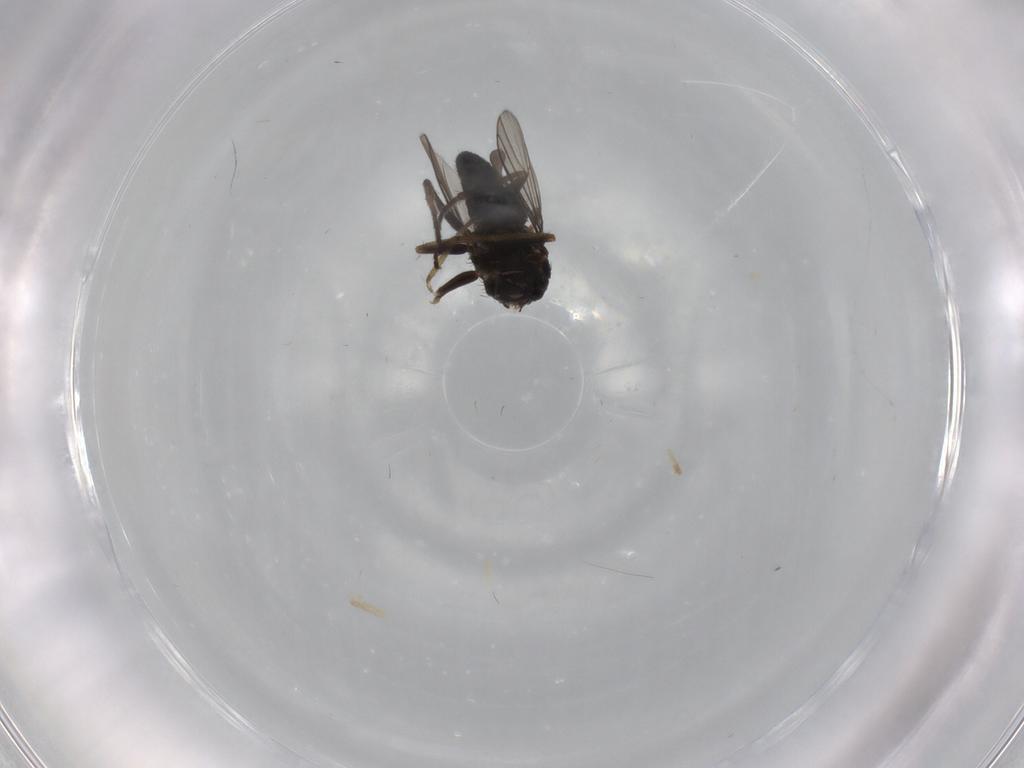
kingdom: Animalia
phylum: Arthropoda
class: Insecta
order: Diptera
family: Dolichopodidae
